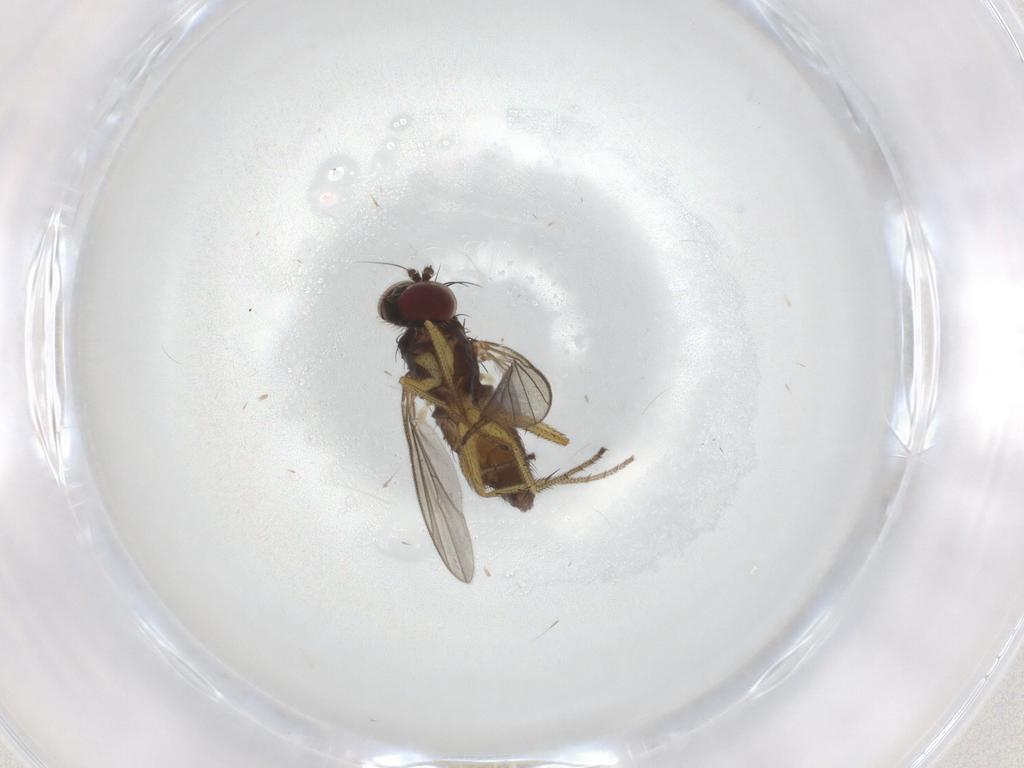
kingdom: Animalia
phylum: Arthropoda
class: Insecta
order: Diptera
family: Dolichopodidae
